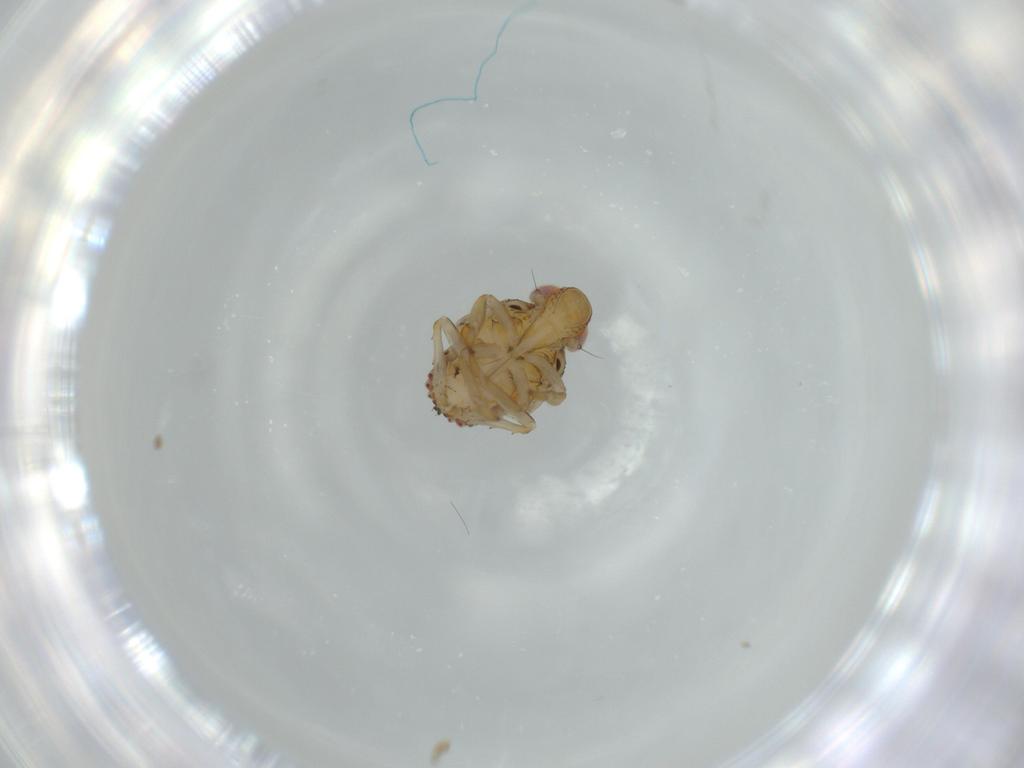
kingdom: Animalia
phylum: Arthropoda
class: Insecta
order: Hemiptera
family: Issidae
